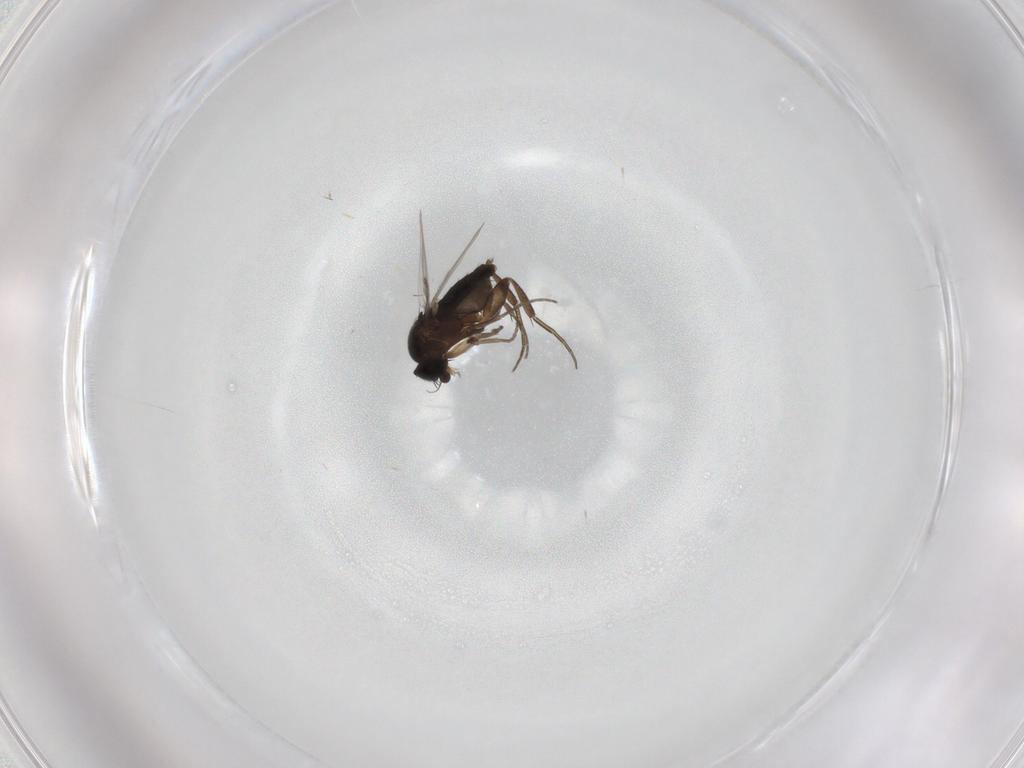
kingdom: Animalia
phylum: Arthropoda
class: Insecta
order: Diptera
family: Phoridae
